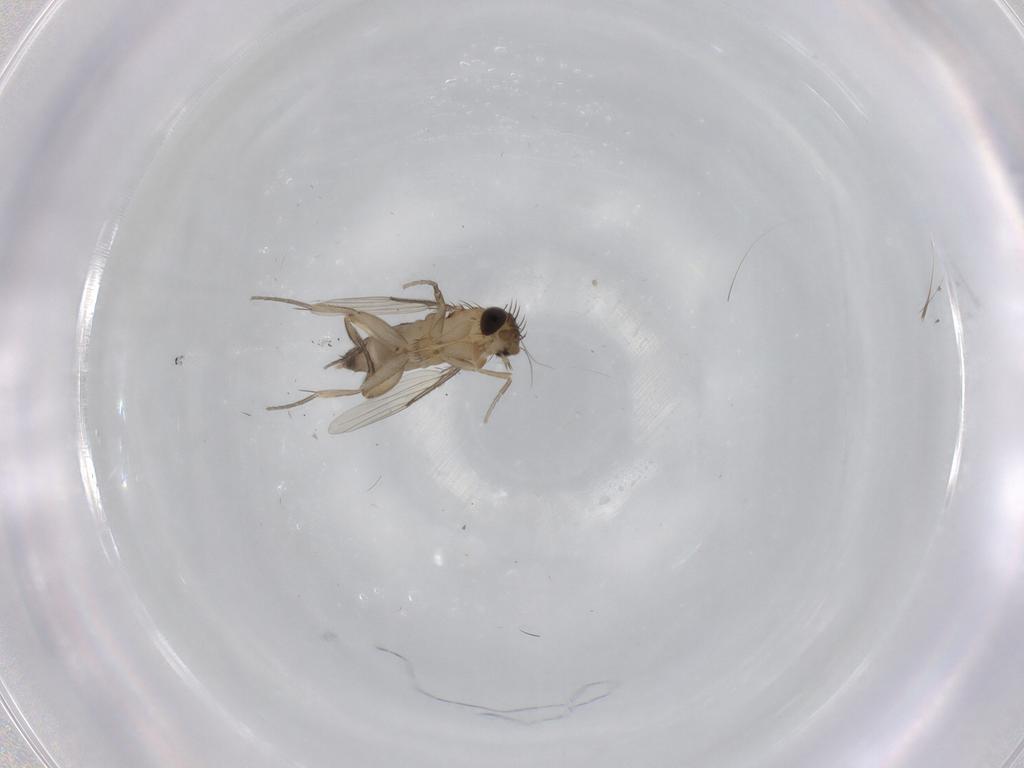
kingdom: Animalia
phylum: Arthropoda
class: Insecta
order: Diptera
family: Phoridae
